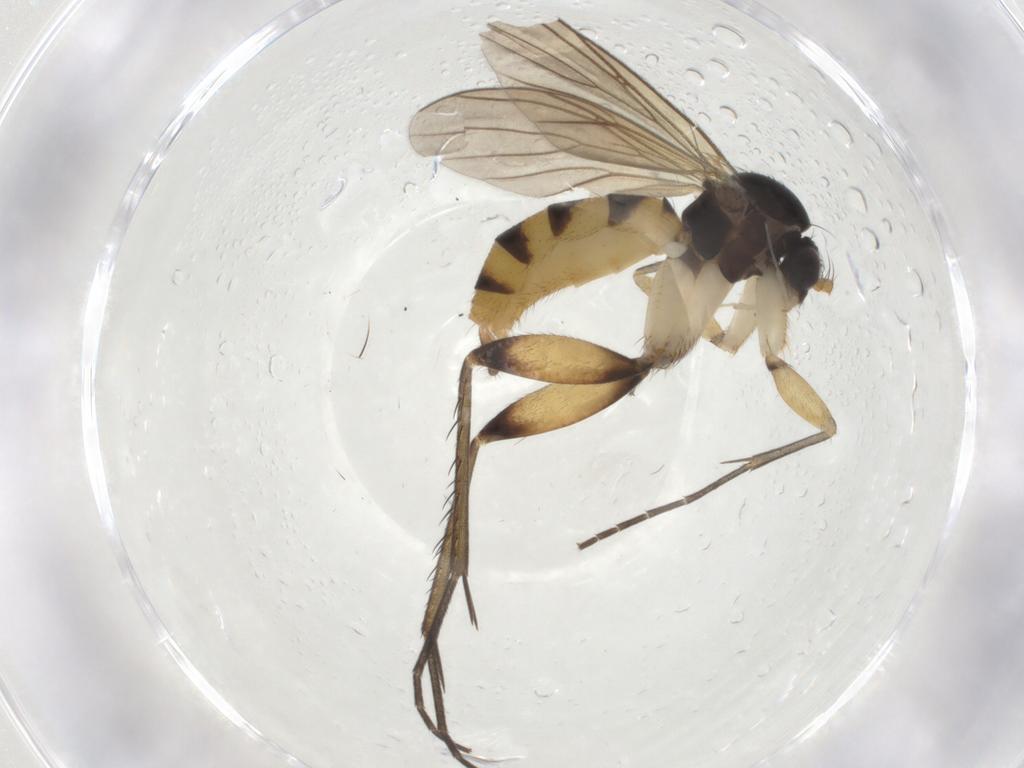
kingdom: Animalia
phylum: Arthropoda
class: Insecta
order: Diptera
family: Mycetophilidae
